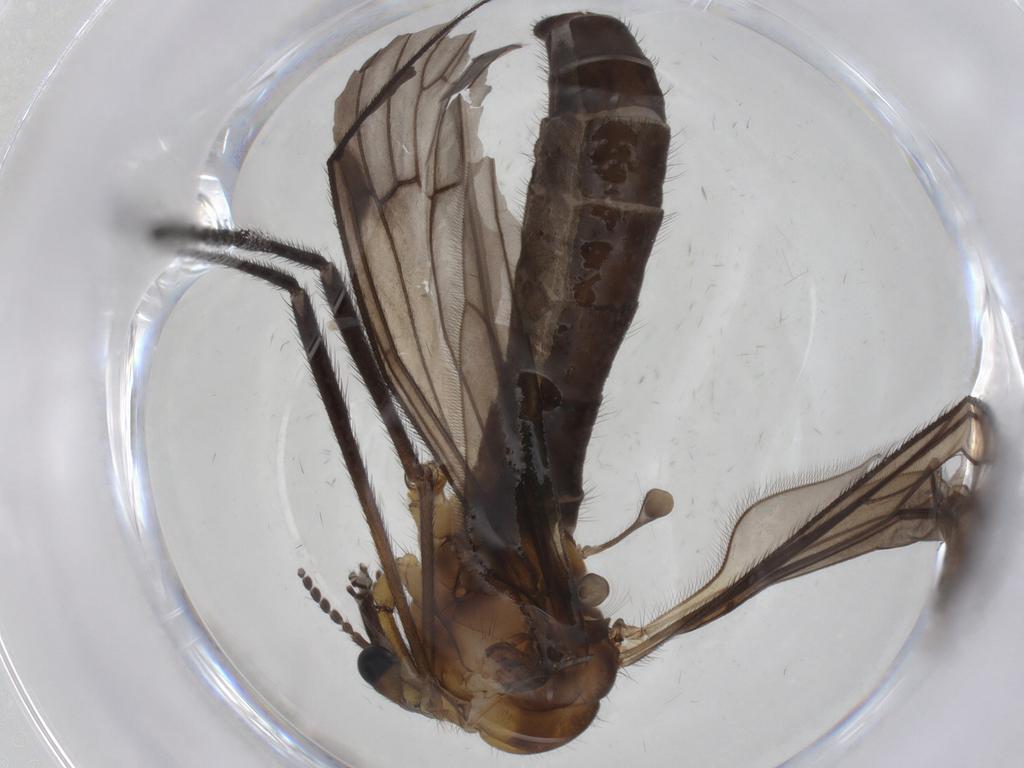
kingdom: Animalia
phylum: Arthropoda
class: Insecta
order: Diptera
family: Limoniidae
